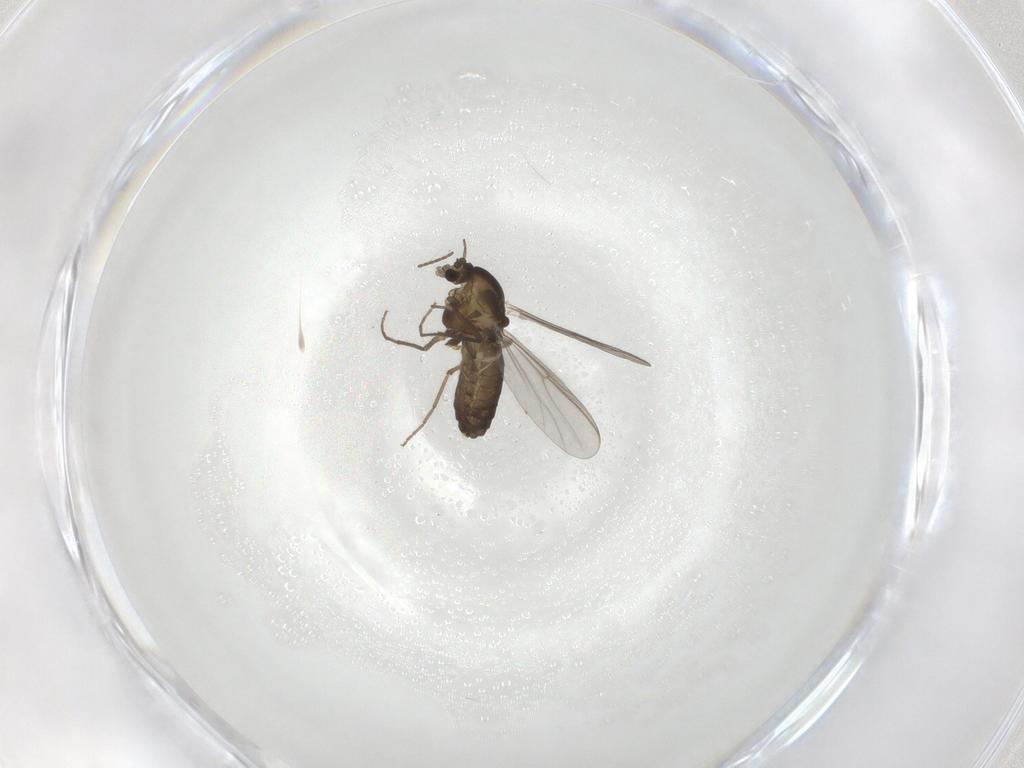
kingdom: Animalia
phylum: Arthropoda
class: Insecta
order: Diptera
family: Chironomidae
